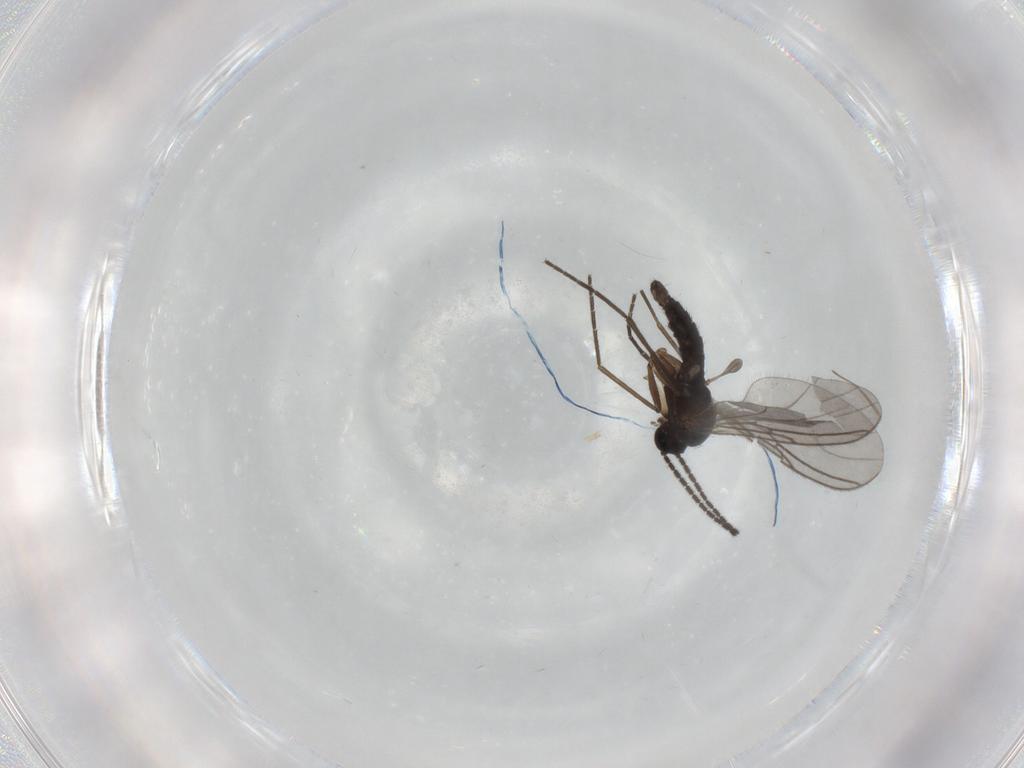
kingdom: Animalia
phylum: Arthropoda
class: Insecta
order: Diptera
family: Sciaridae
